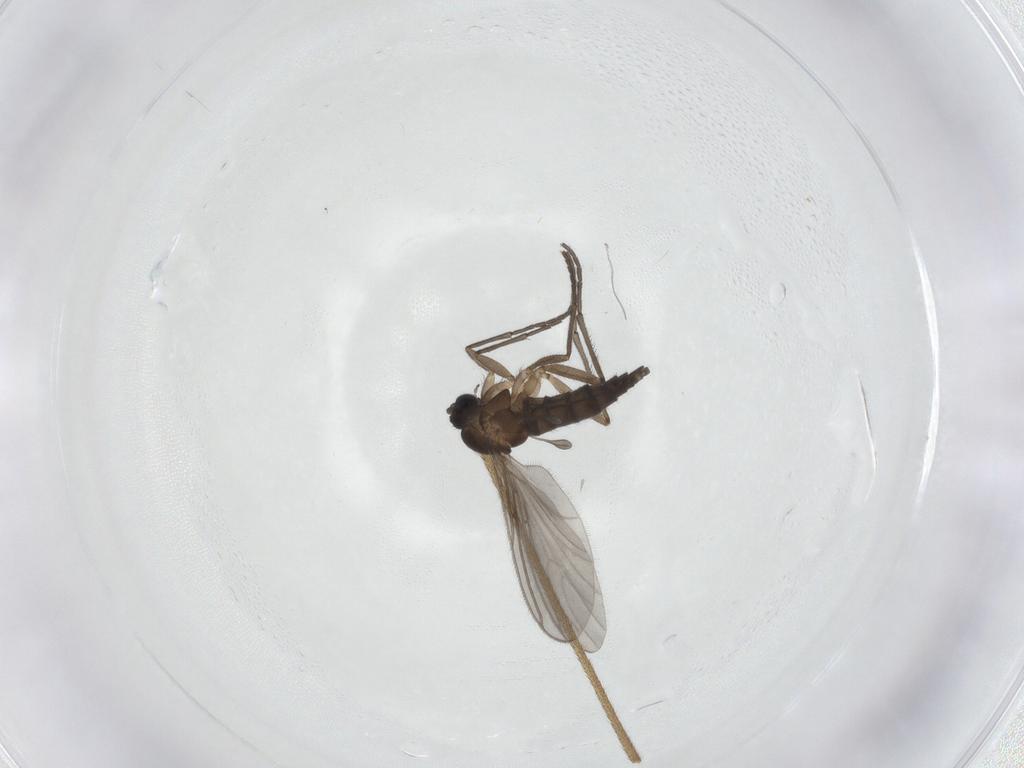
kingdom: Animalia
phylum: Arthropoda
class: Insecta
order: Diptera
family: Sciaridae
